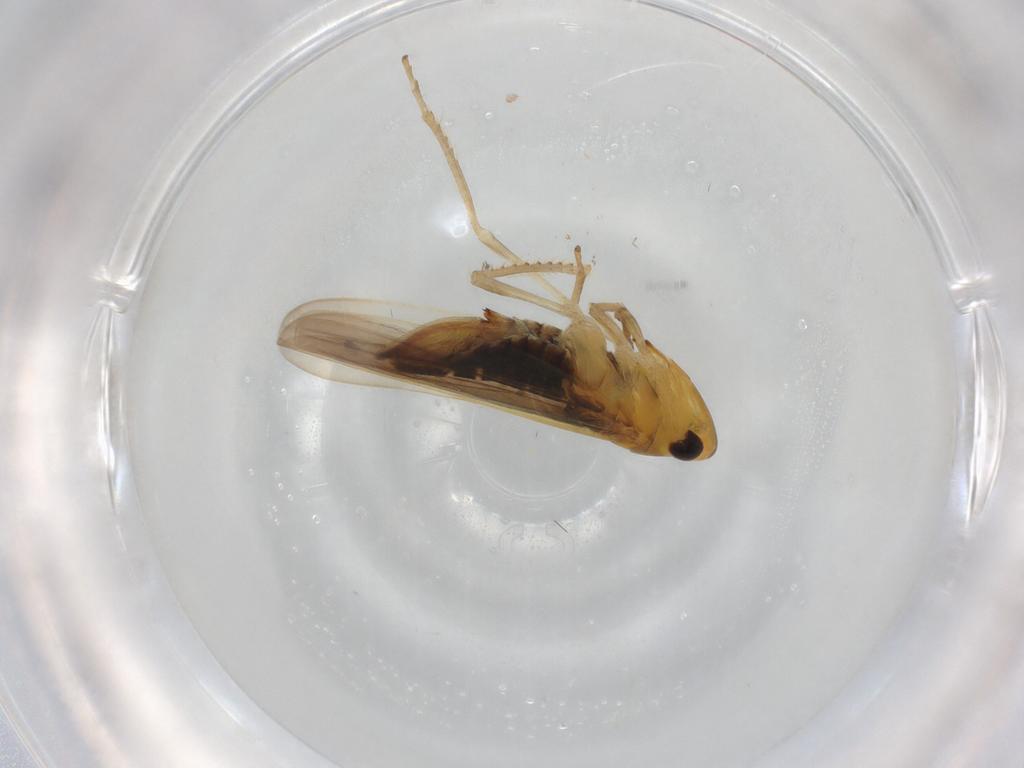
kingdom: Animalia
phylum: Arthropoda
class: Insecta
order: Hemiptera
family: Cicadellidae
